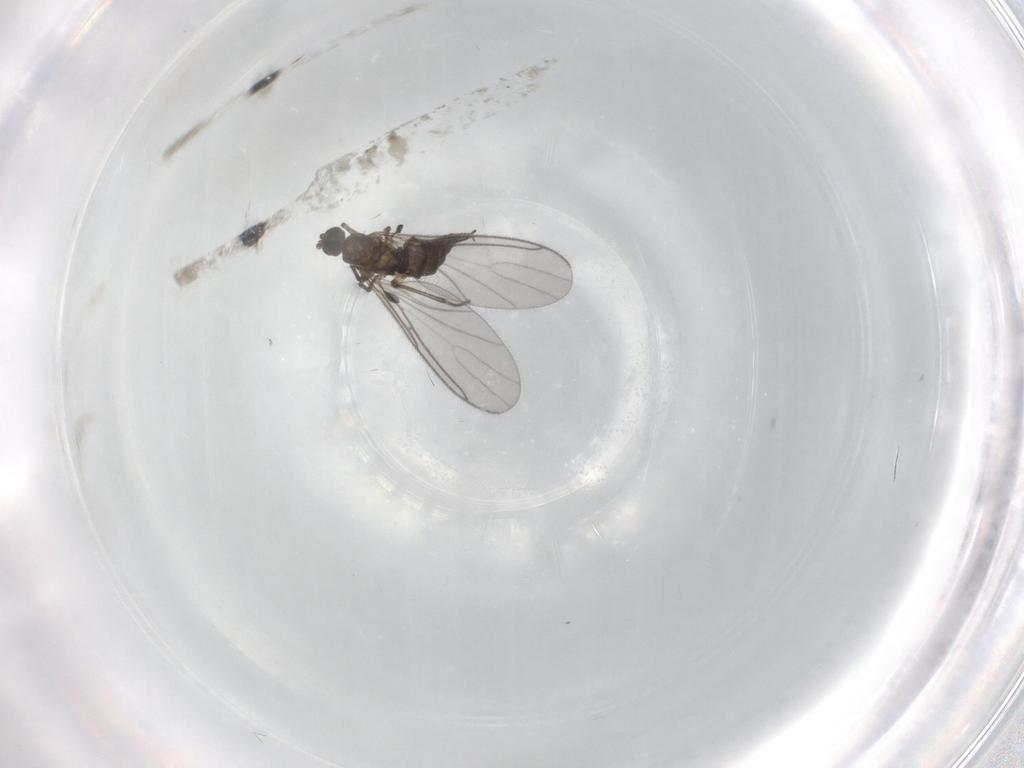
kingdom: Animalia
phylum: Arthropoda
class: Insecta
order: Diptera
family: Sciaridae
